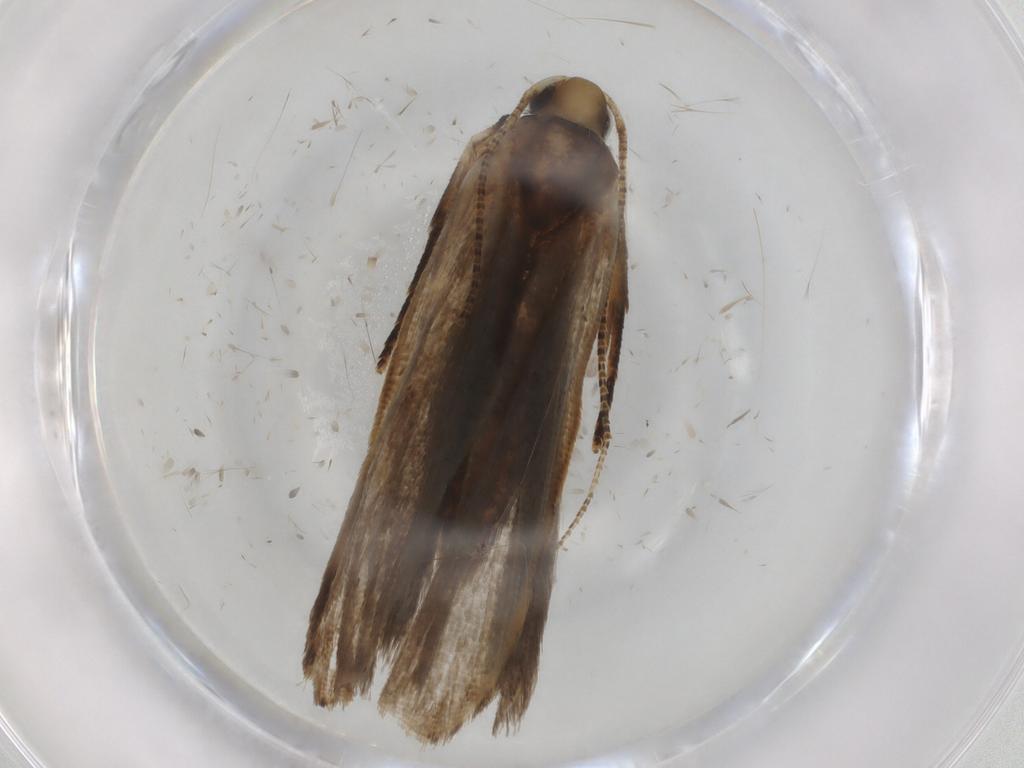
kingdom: Animalia
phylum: Arthropoda
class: Insecta
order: Lepidoptera
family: Gelechiidae
